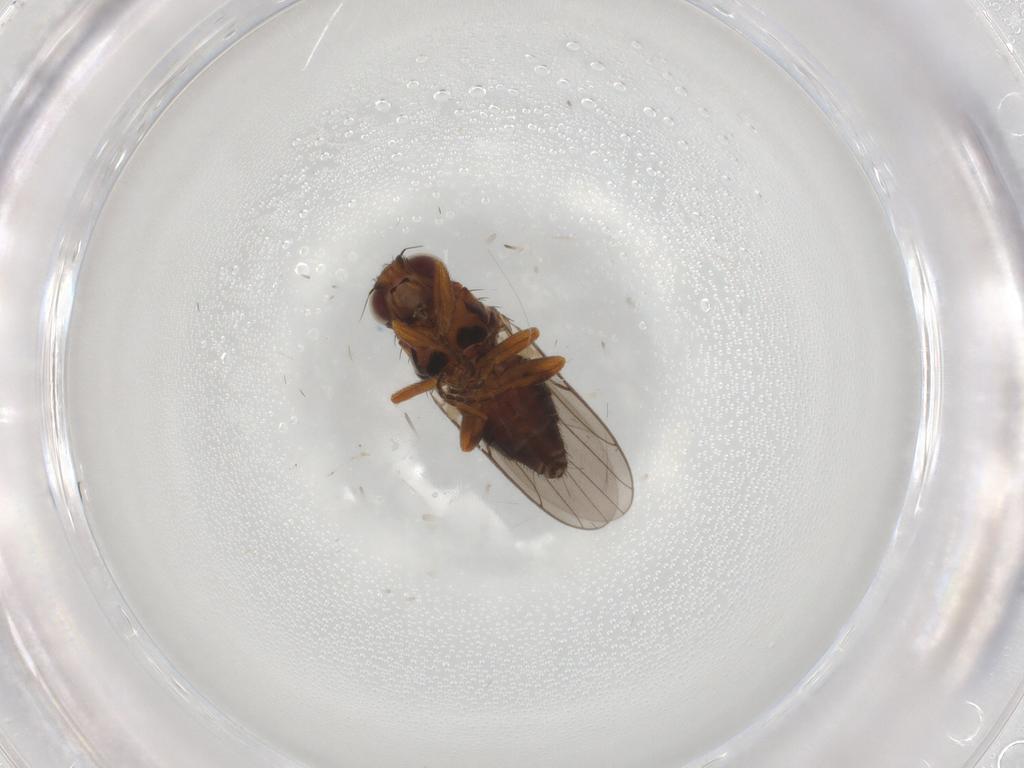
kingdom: Animalia
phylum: Arthropoda
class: Insecta
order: Diptera
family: Chloropidae
